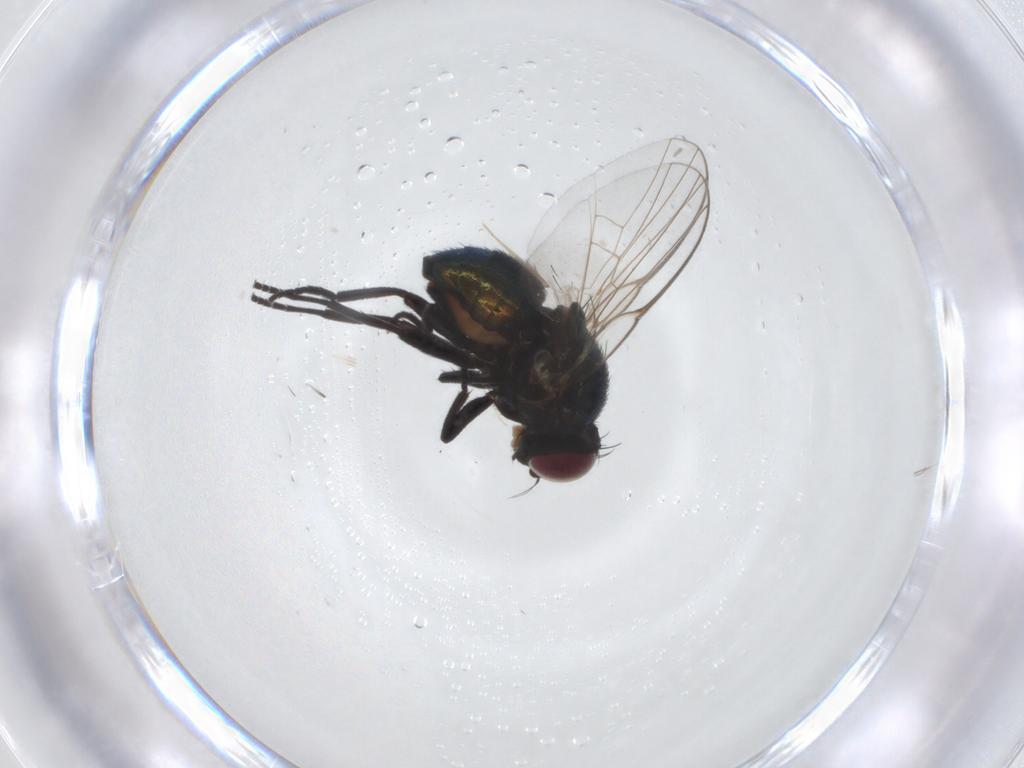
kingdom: Animalia
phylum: Arthropoda
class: Insecta
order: Diptera
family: Agromyzidae
